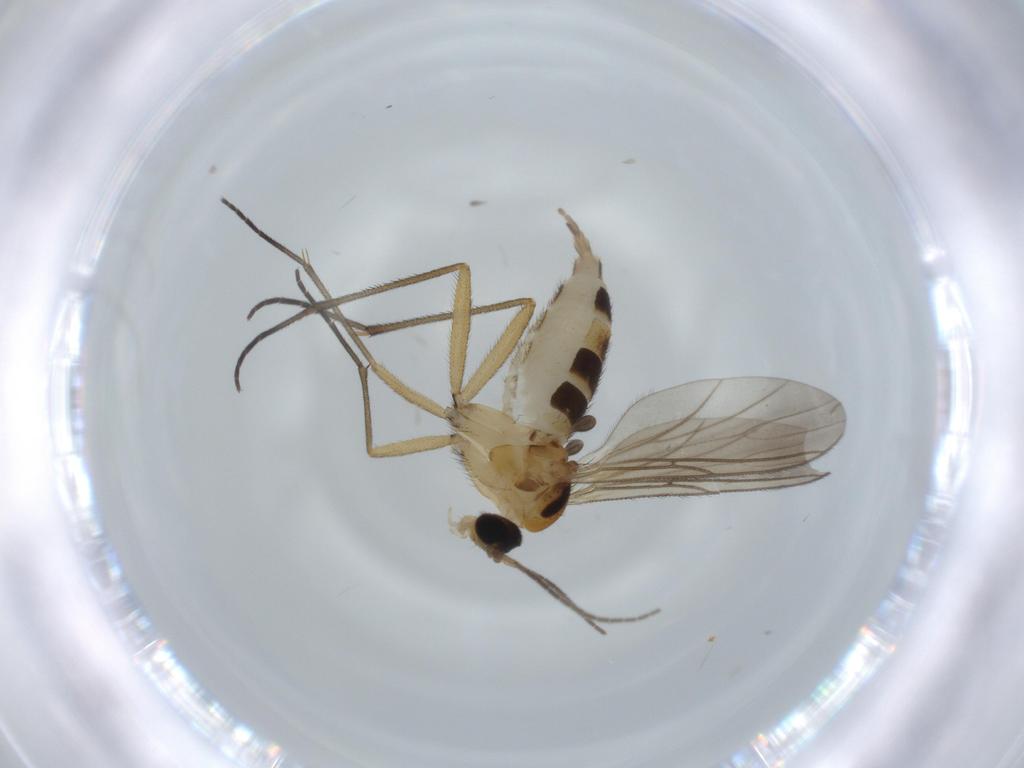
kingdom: Animalia
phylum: Arthropoda
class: Insecta
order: Diptera
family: Sciaridae
